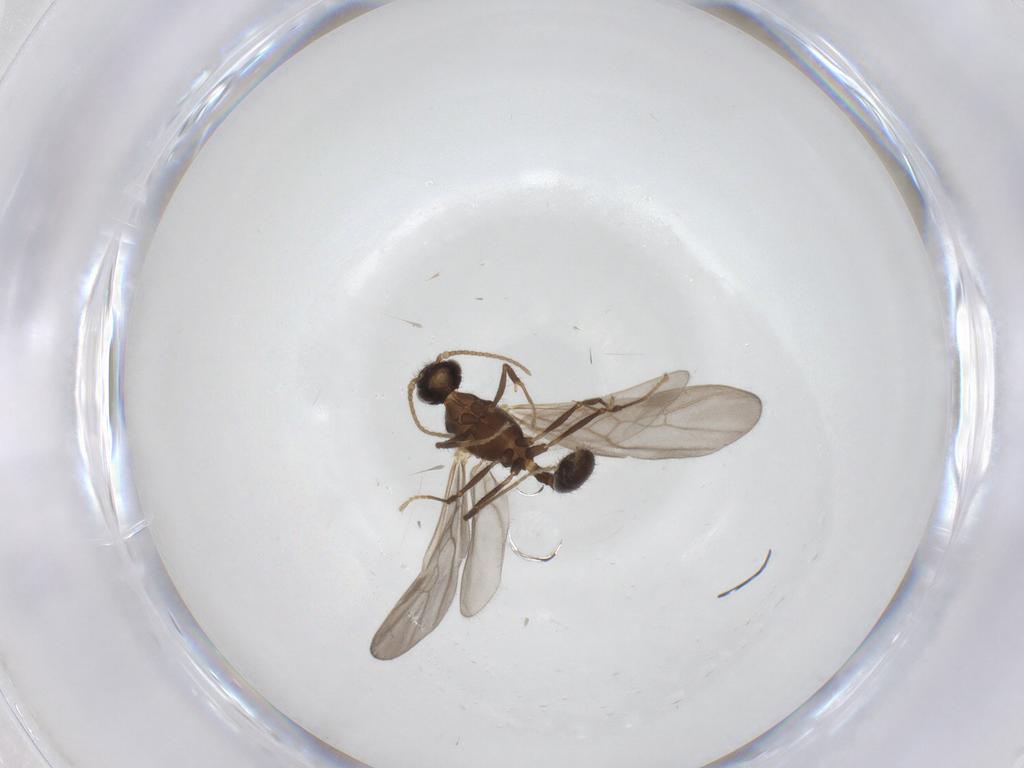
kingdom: Animalia
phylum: Arthropoda
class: Insecta
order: Hymenoptera
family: Formicidae
